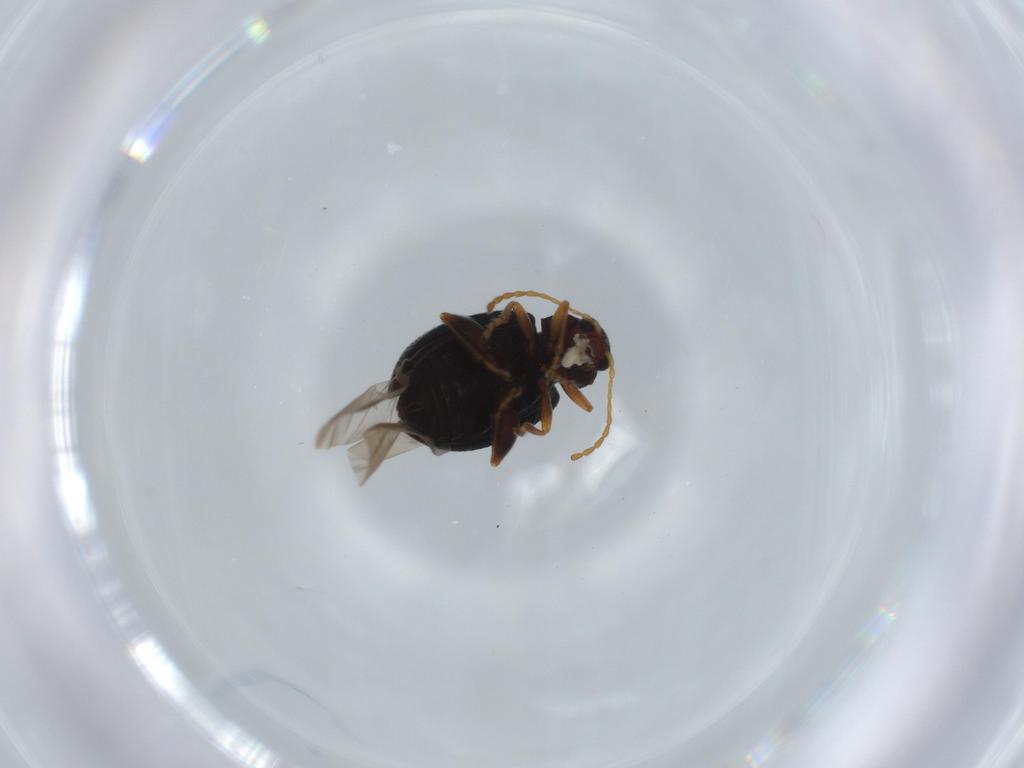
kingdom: Animalia
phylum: Arthropoda
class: Insecta
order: Coleoptera
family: Chrysomelidae
